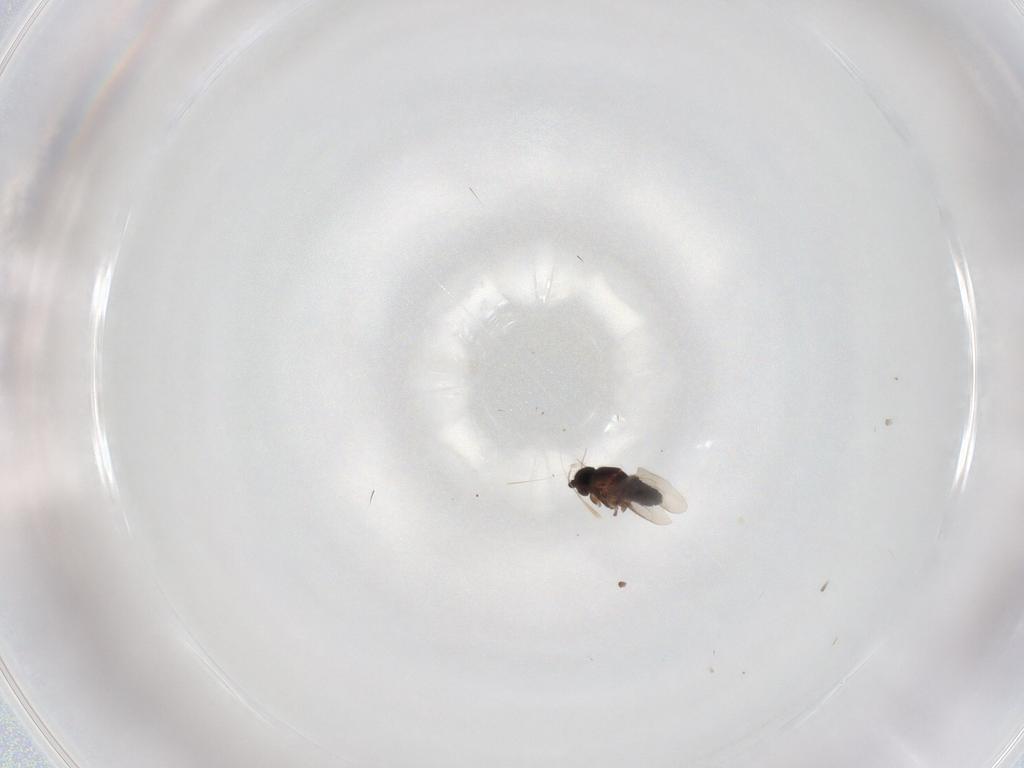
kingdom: Animalia
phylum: Arthropoda
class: Insecta
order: Diptera
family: Sphaeroceridae
